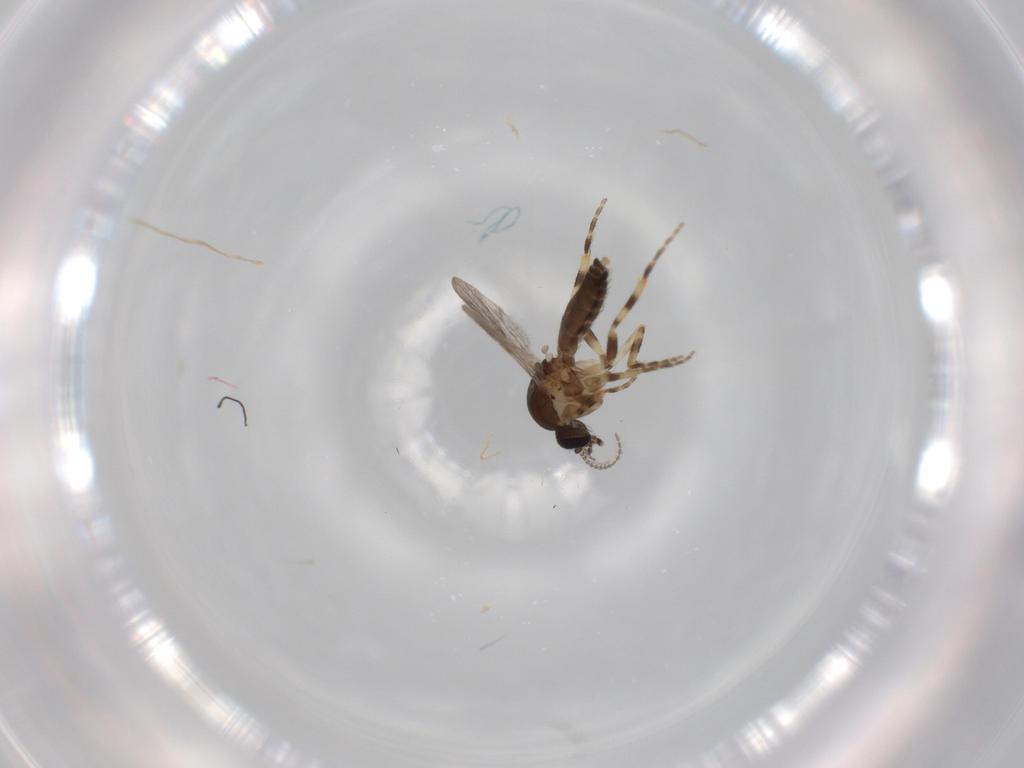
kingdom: Animalia
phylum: Arthropoda
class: Insecta
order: Diptera
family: Ceratopogonidae
